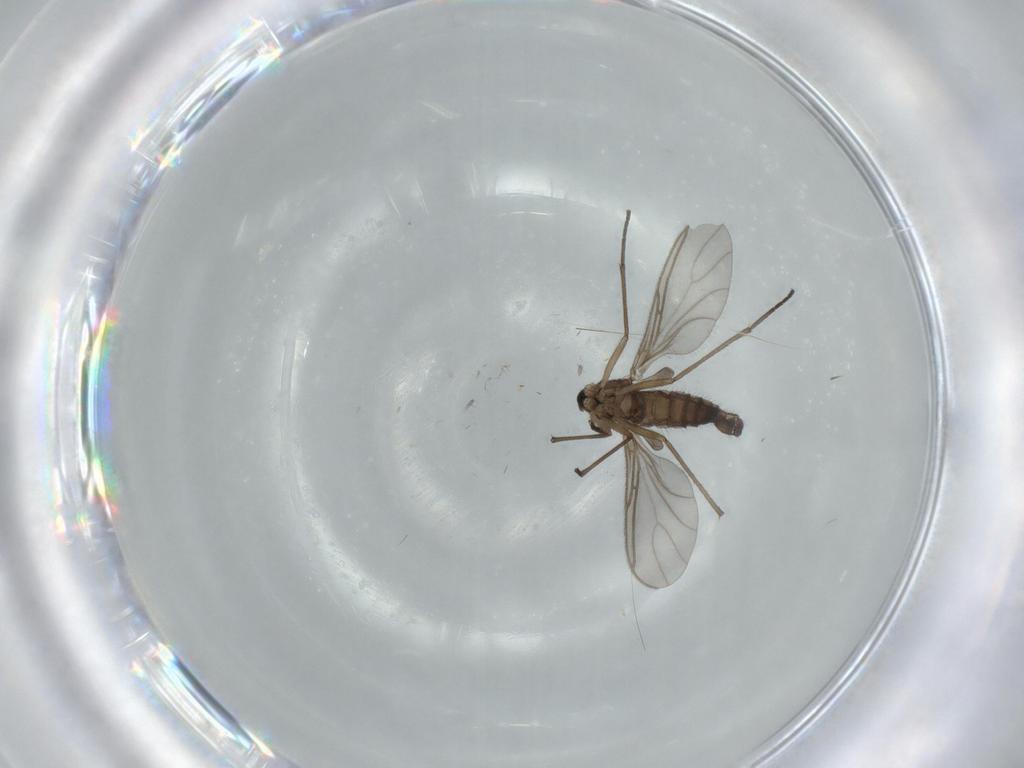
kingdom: Animalia
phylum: Arthropoda
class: Insecta
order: Diptera
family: Sciaridae
